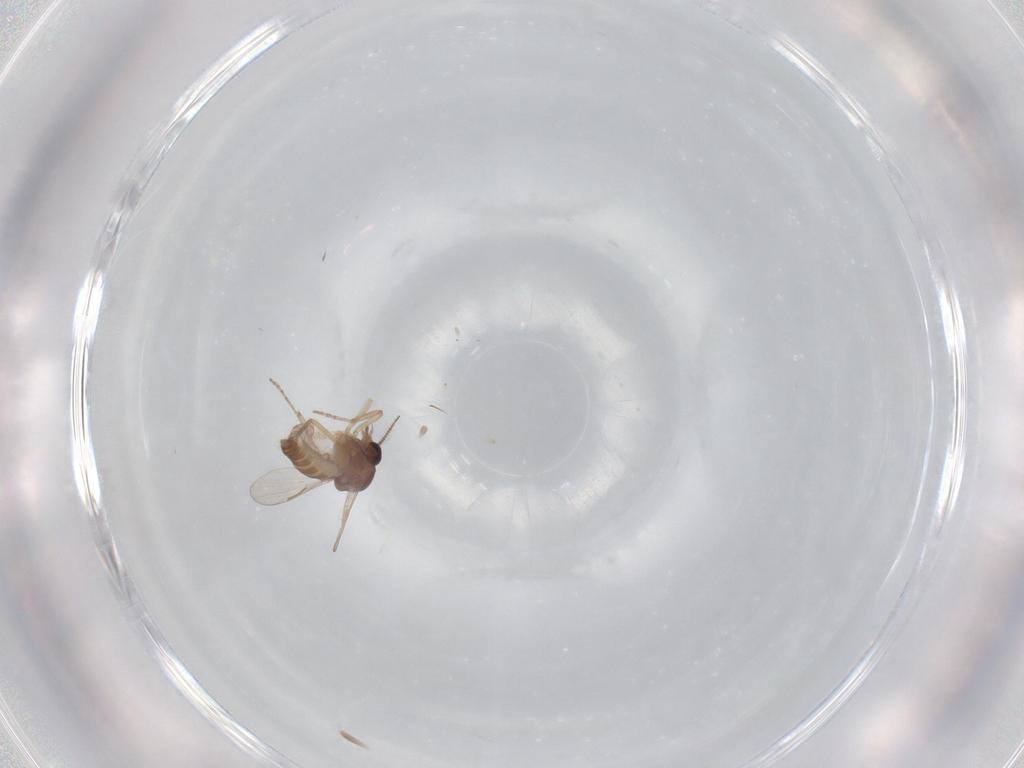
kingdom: Animalia
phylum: Arthropoda
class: Insecta
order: Diptera
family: Ceratopogonidae
